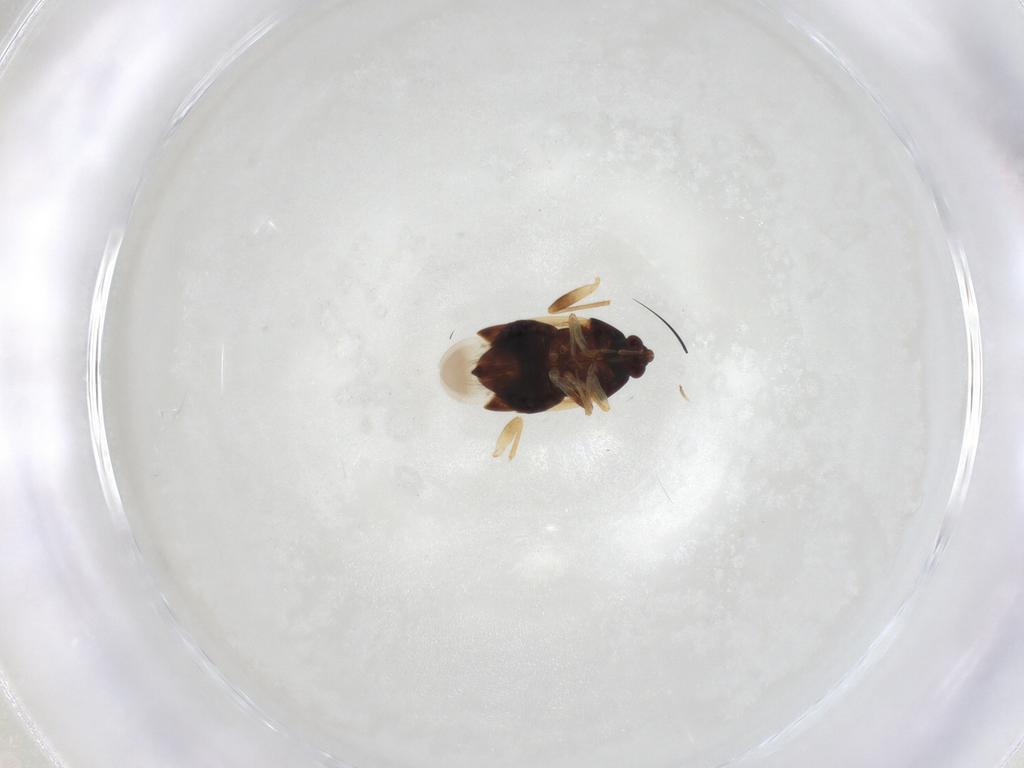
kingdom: Animalia
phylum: Arthropoda
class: Insecta
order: Hemiptera
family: Anthocoridae
